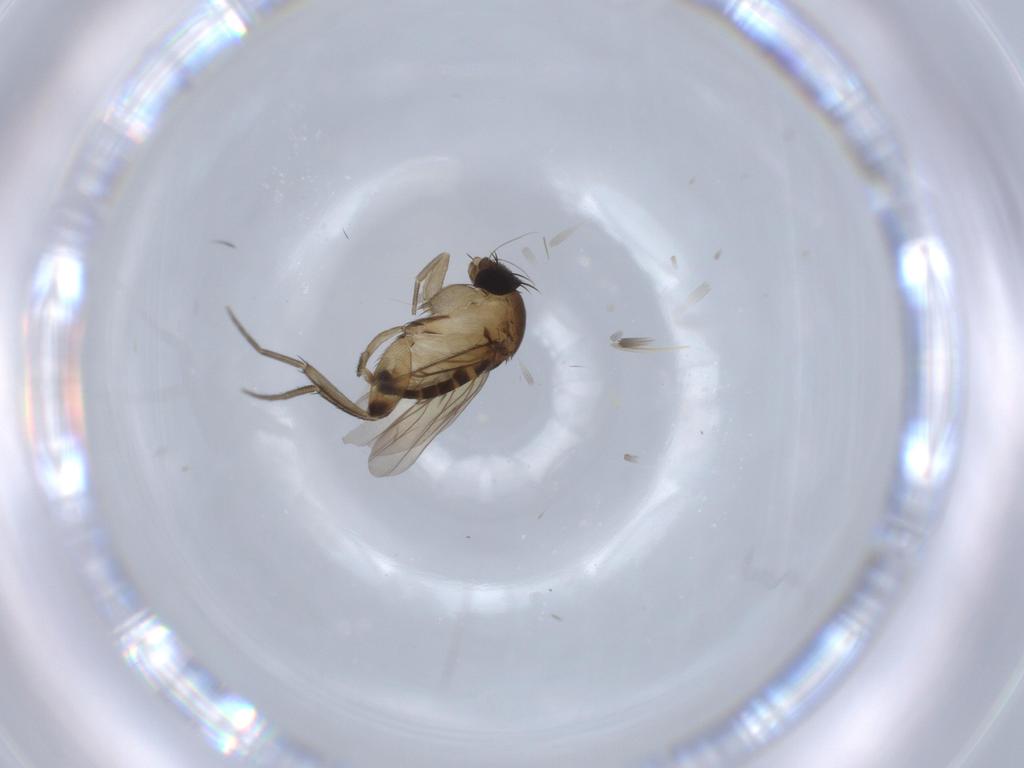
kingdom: Animalia
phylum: Arthropoda
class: Insecta
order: Diptera
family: Phoridae
